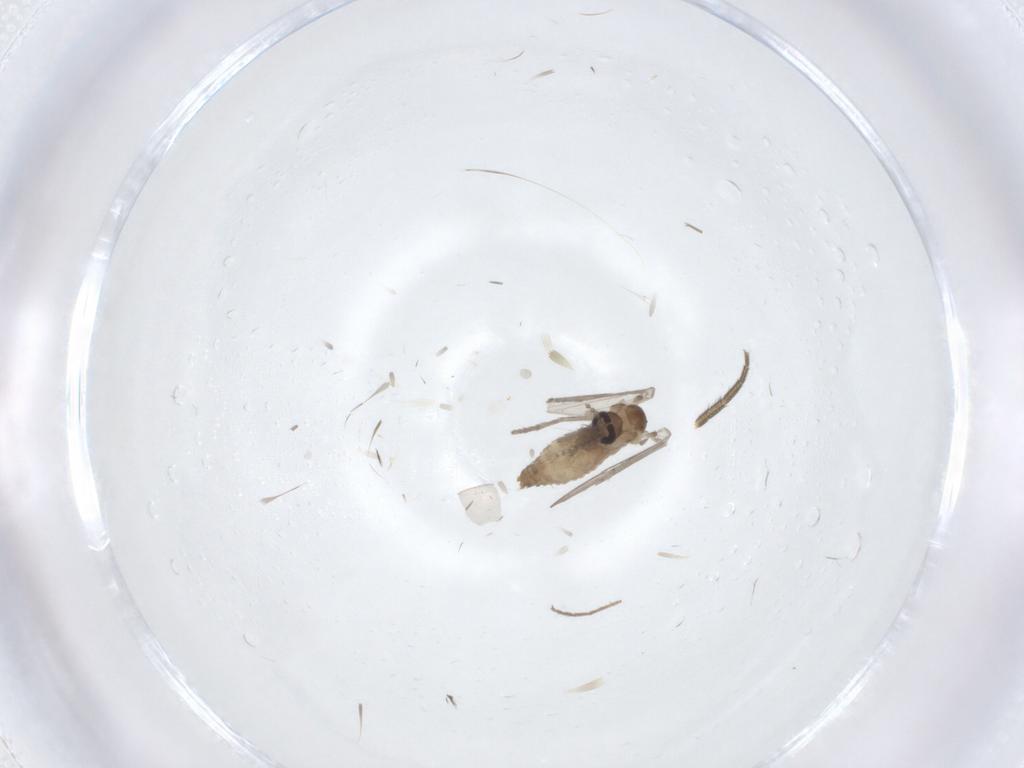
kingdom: Animalia
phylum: Arthropoda
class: Insecta
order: Diptera
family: Psychodidae
